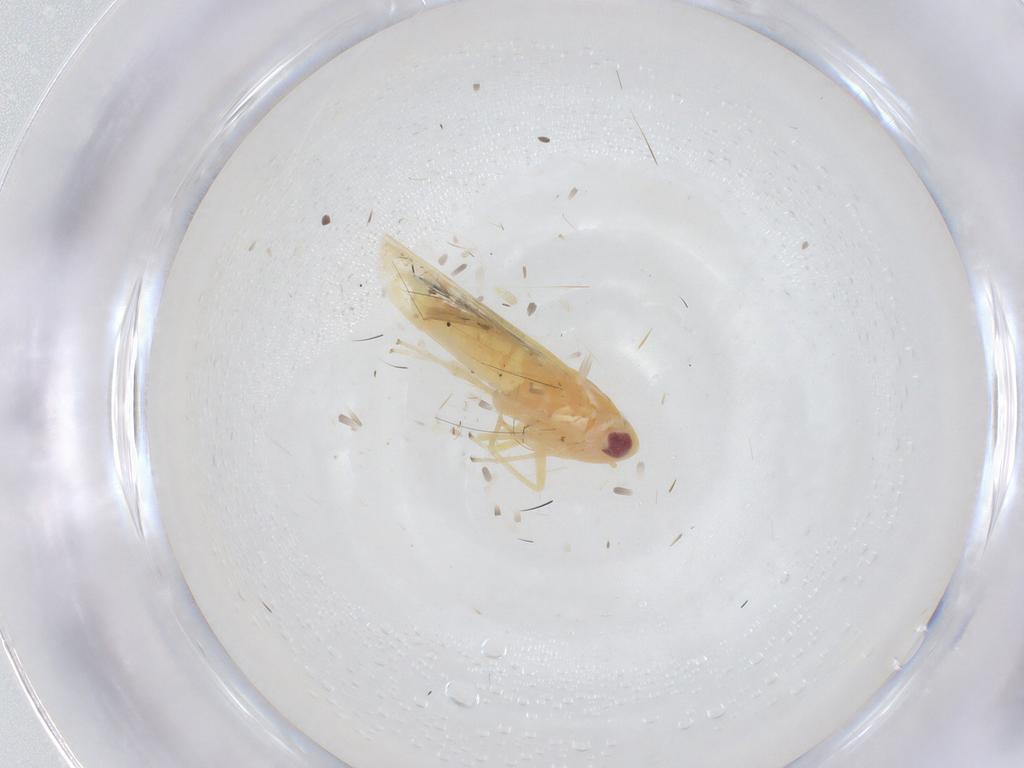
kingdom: Animalia
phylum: Arthropoda
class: Insecta
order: Hemiptera
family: Cicadellidae
